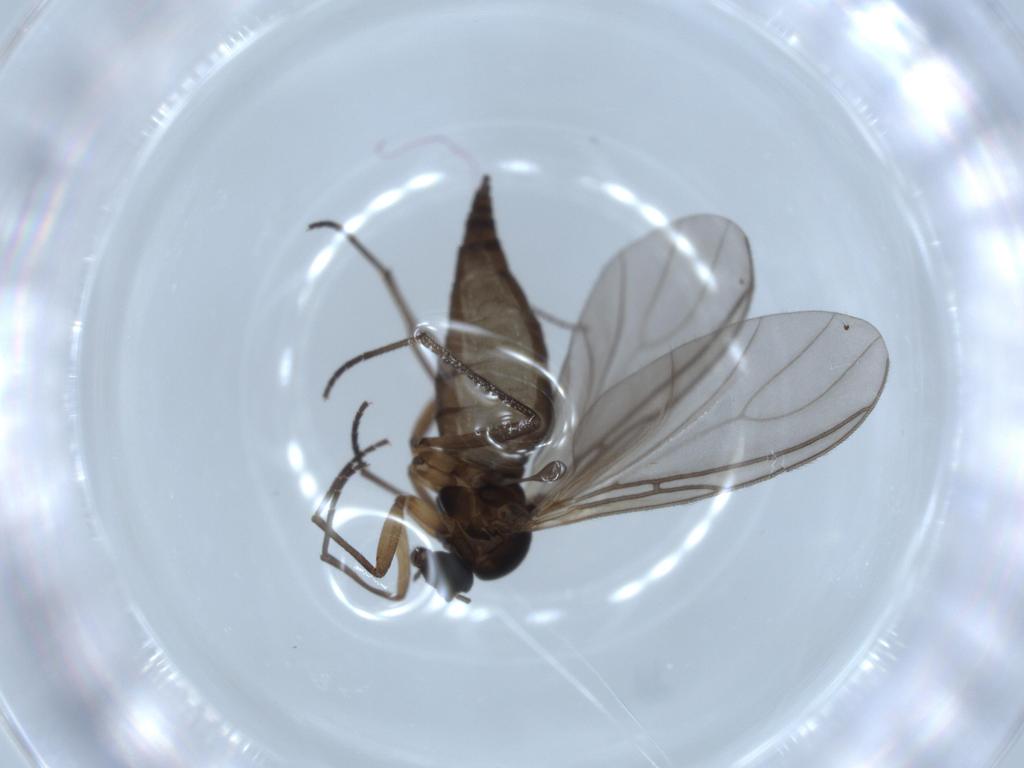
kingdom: Animalia
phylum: Arthropoda
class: Insecta
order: Diptera
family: Sciaridae
